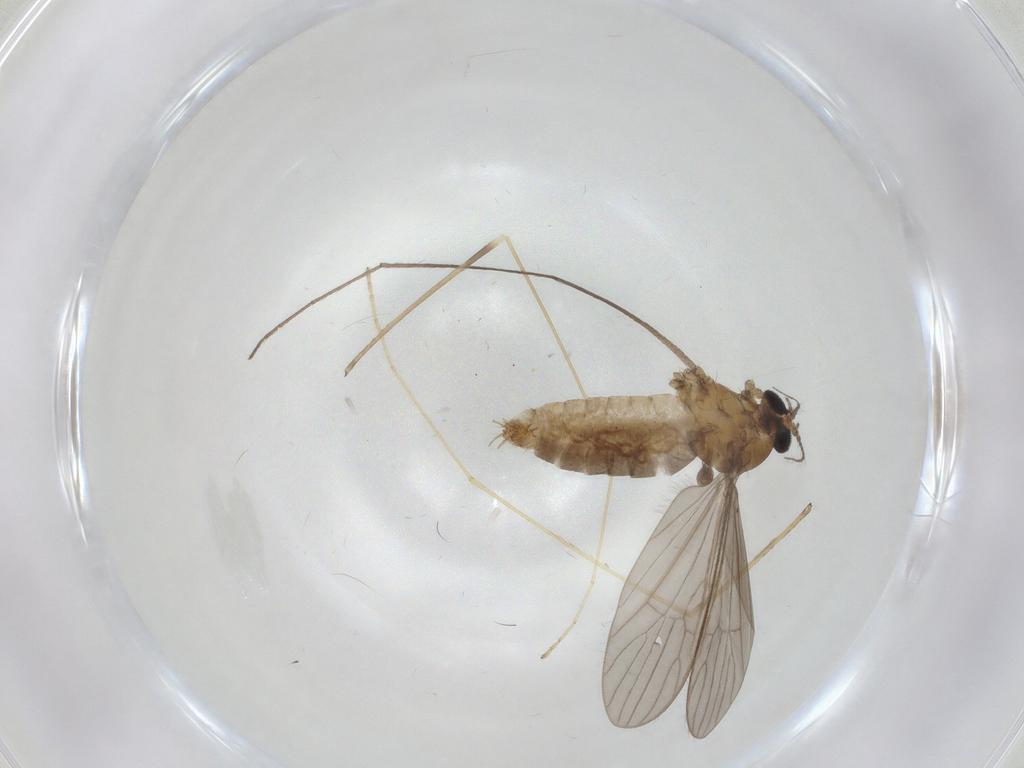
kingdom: Animalia
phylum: Arthropoda
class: Insecta
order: Diptera
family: Limoniidae
